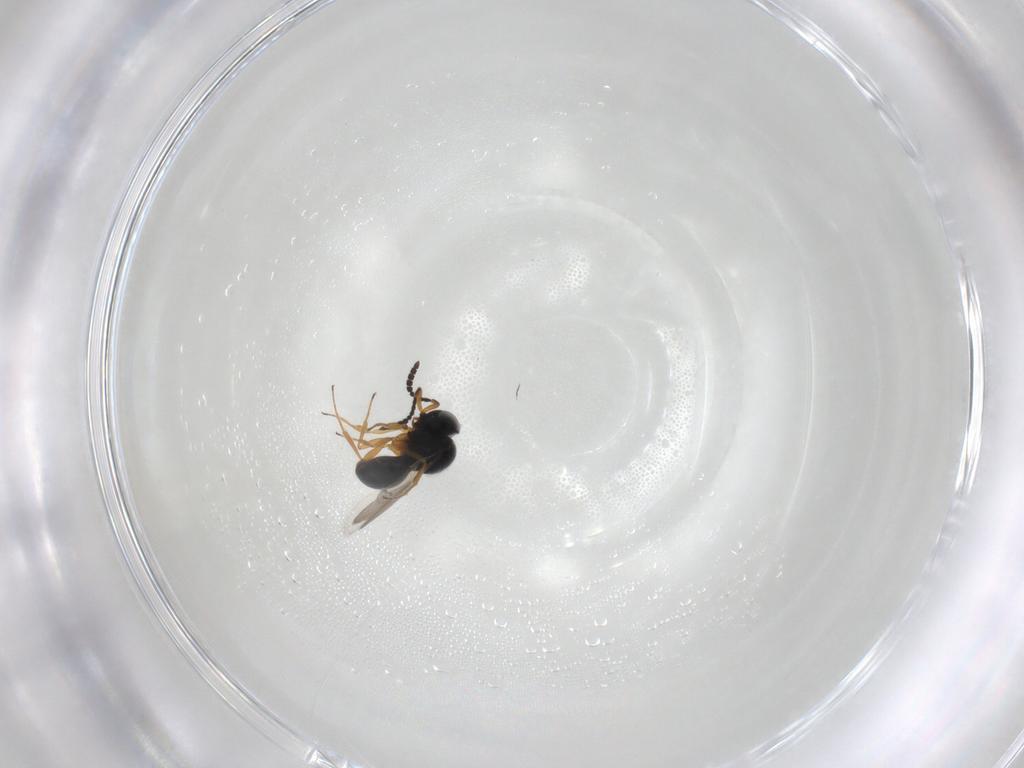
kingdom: Animalia
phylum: Arthropoda
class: Insecta
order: Hymenoptera
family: Scelionidae
